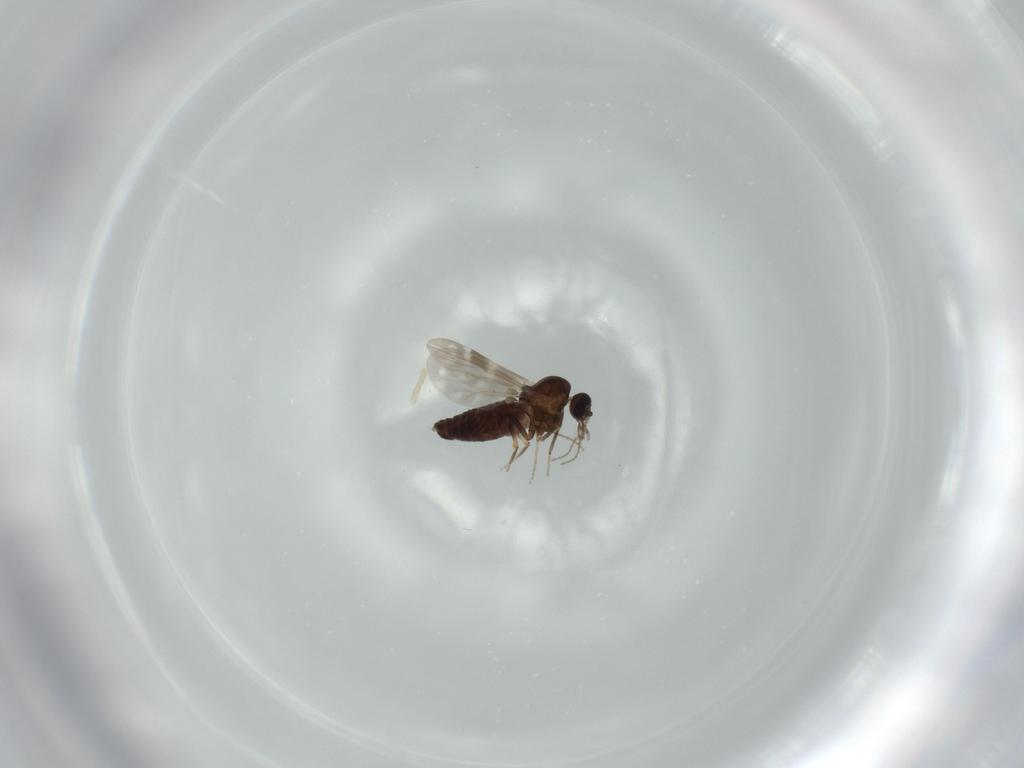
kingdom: Animalia
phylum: Arthropoda
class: Insecta
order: Diptera
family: Ceratopogonidae
